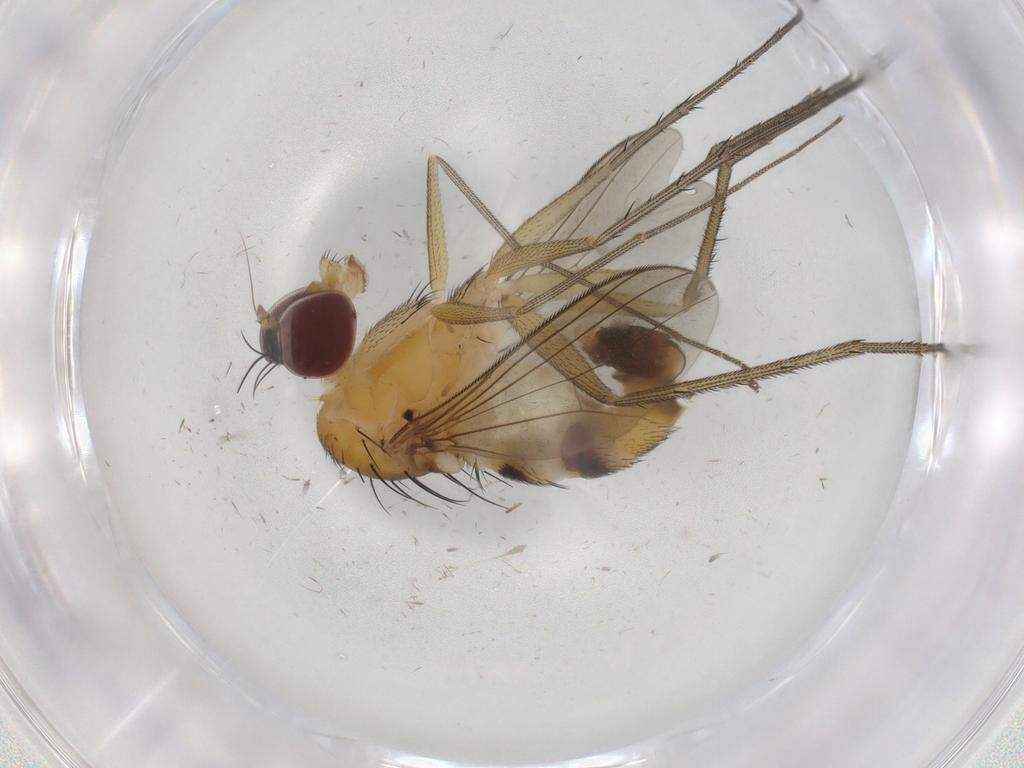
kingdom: Animalia
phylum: Arthropoda
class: Insecta
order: Diptera
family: Dolichopodidae
